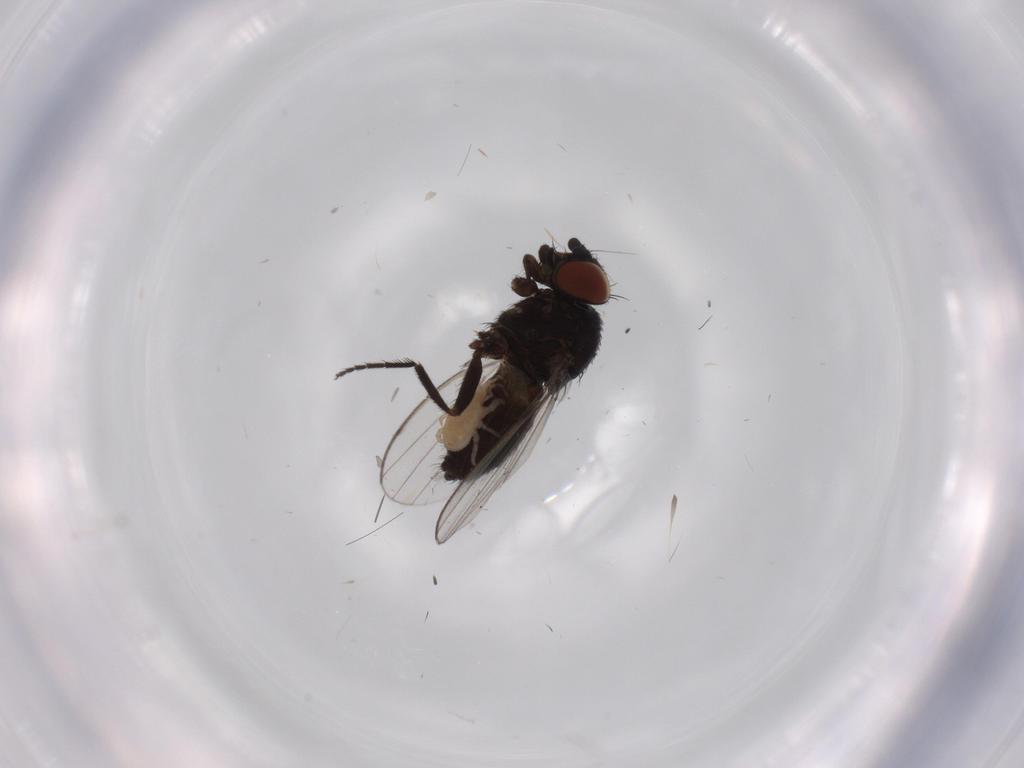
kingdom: Animalia
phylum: Arthropoda
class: Insecta
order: Diptera
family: Milichiidae
